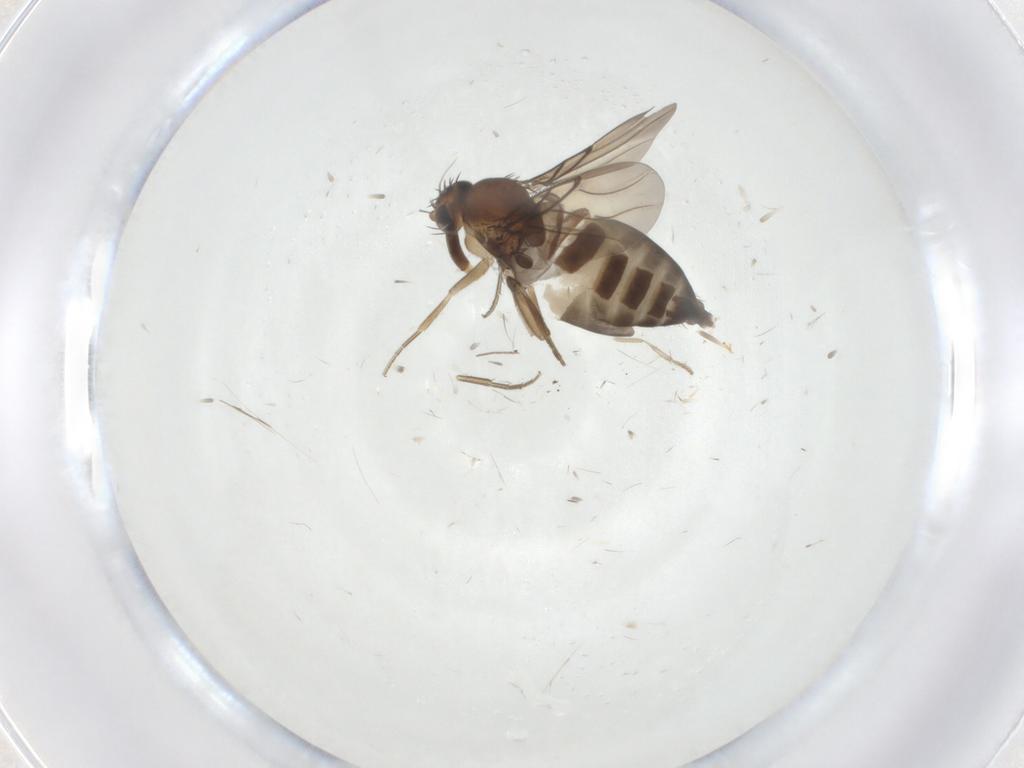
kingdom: Animalia
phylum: Arthropoda
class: Insecta
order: Diptera
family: Phoridae
